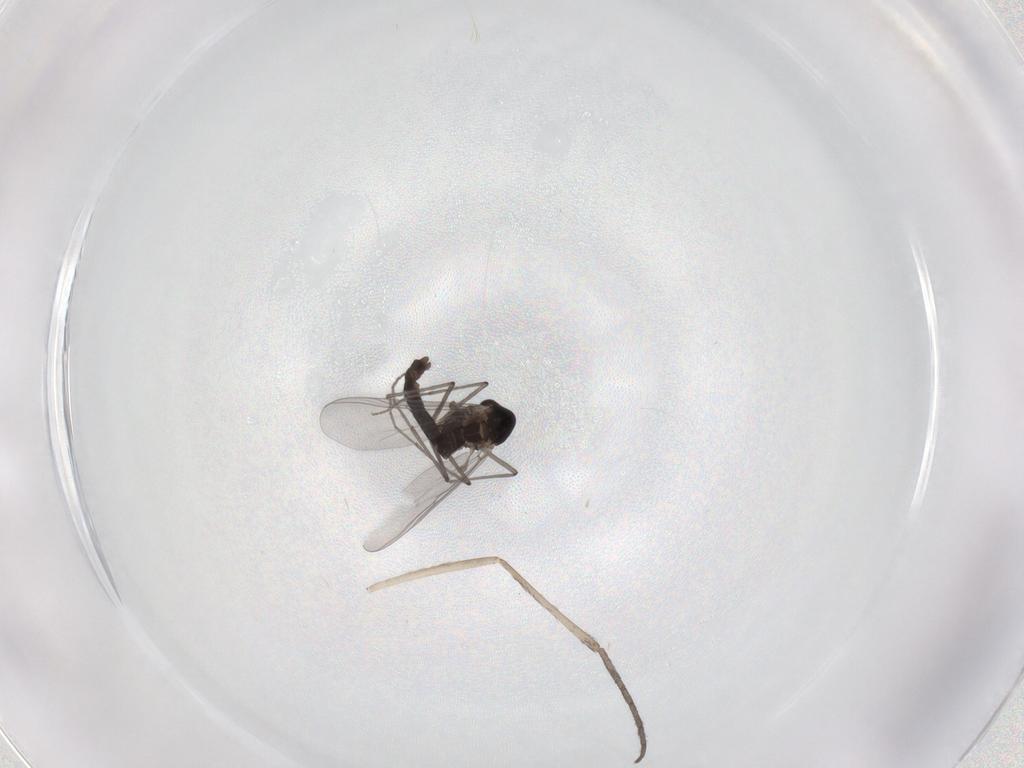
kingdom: Animalia
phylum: Arthropoda
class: Insecta
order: Diptera
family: Chironomidae
